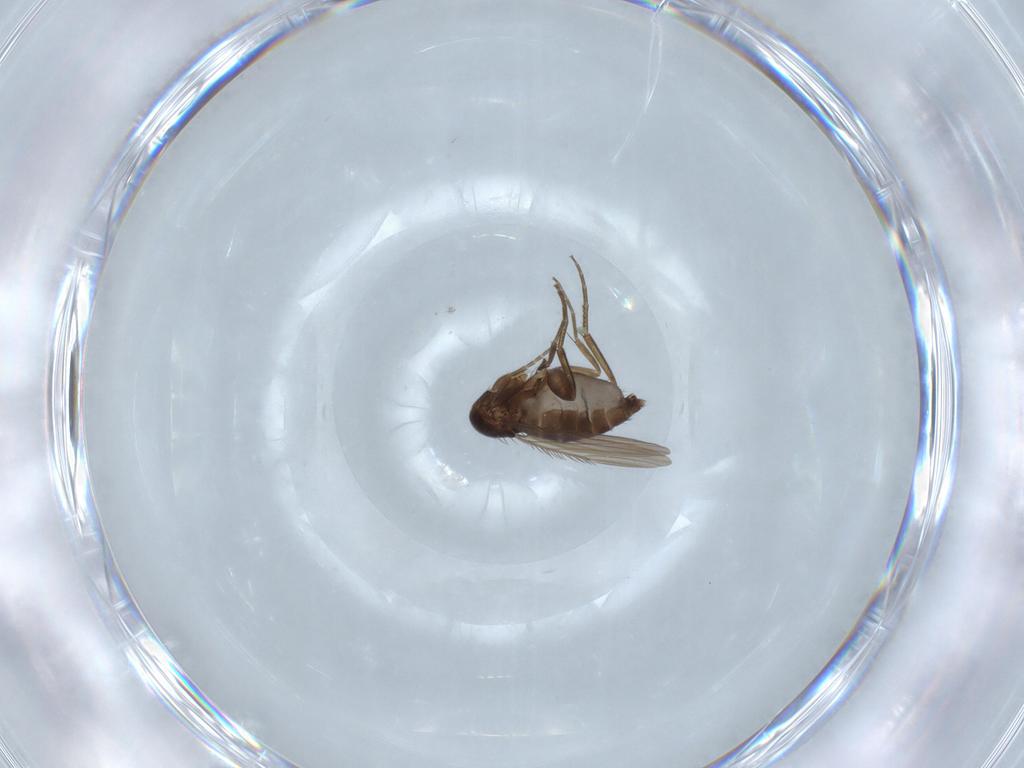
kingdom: Animalia
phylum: Arthropoda
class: Insecta
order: Diptera
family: Phoridae
